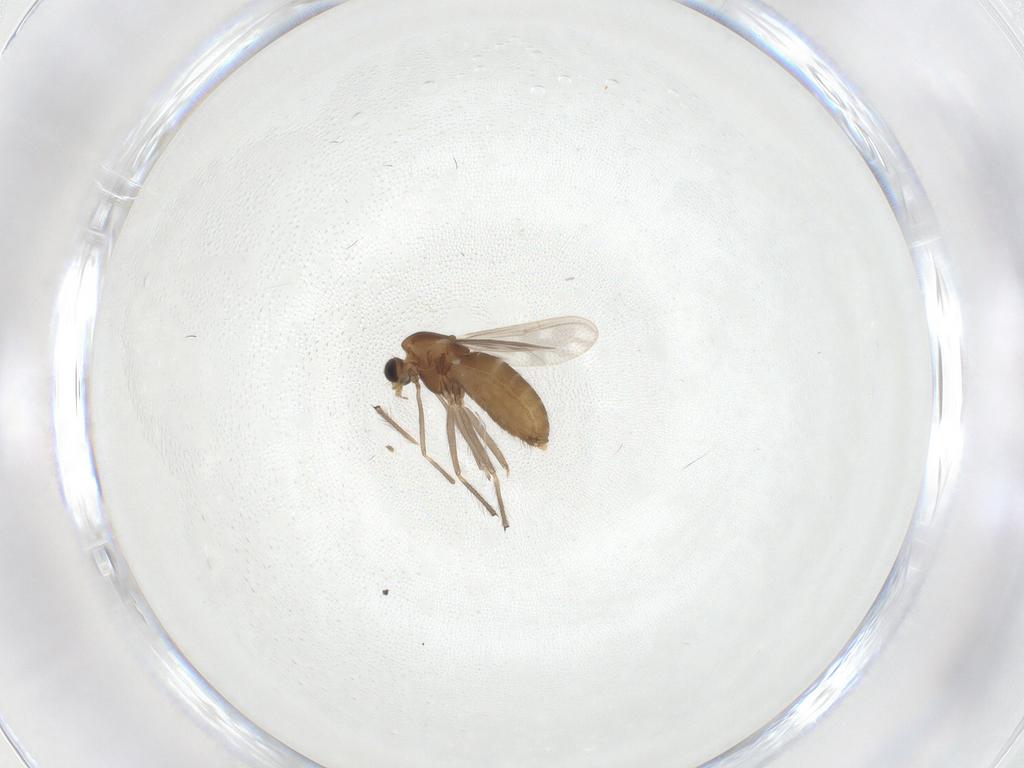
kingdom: Animalia
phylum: Arthropoda
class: Insecta
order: Diptera
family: Chironomidae
